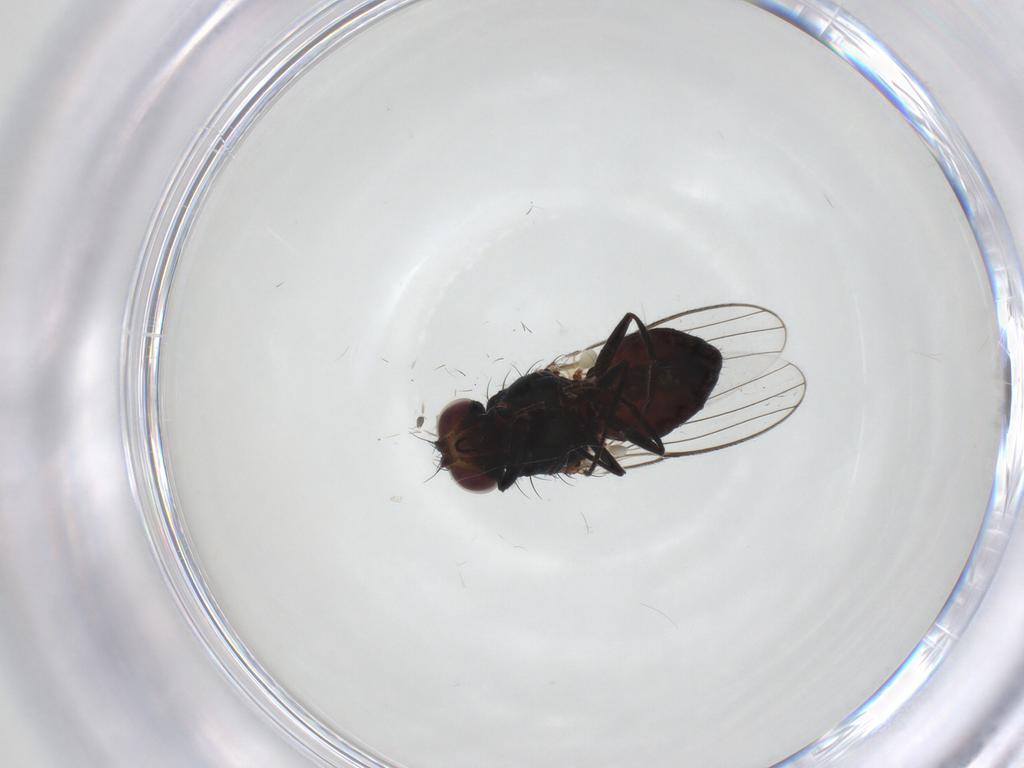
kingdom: Animalia
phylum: Arthropoda
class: Insecta
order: Diptera
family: Carnidae
